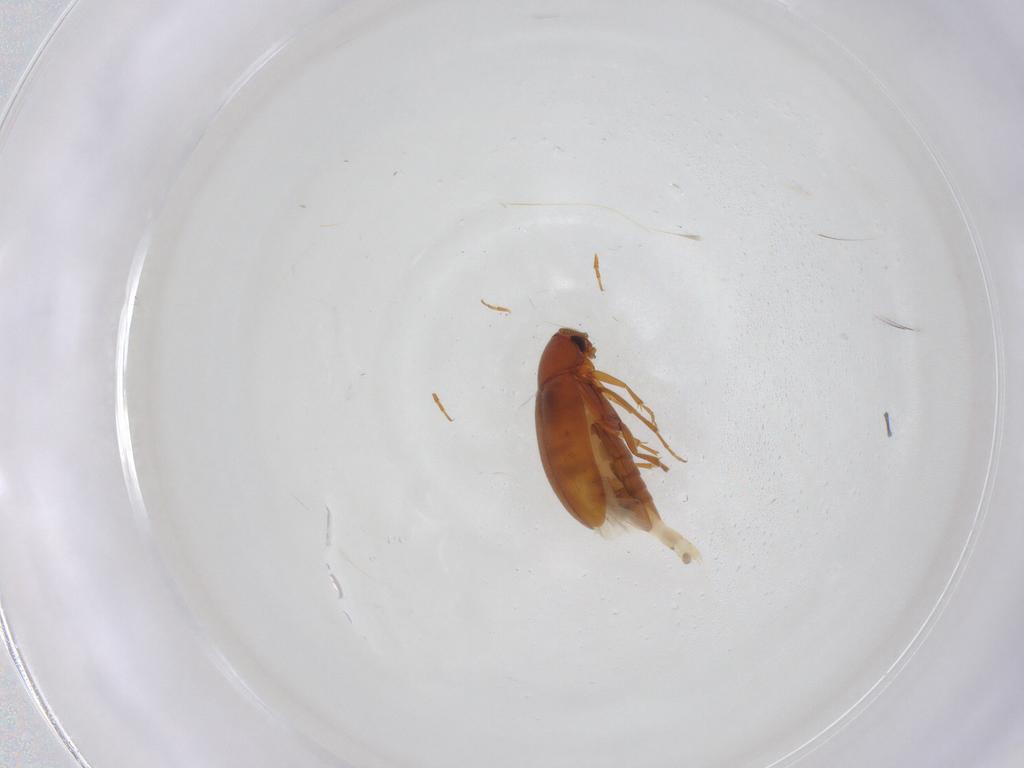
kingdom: Animalia
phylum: Arthropoda
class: Insecta
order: Coleoptera
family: Scraptiidae
